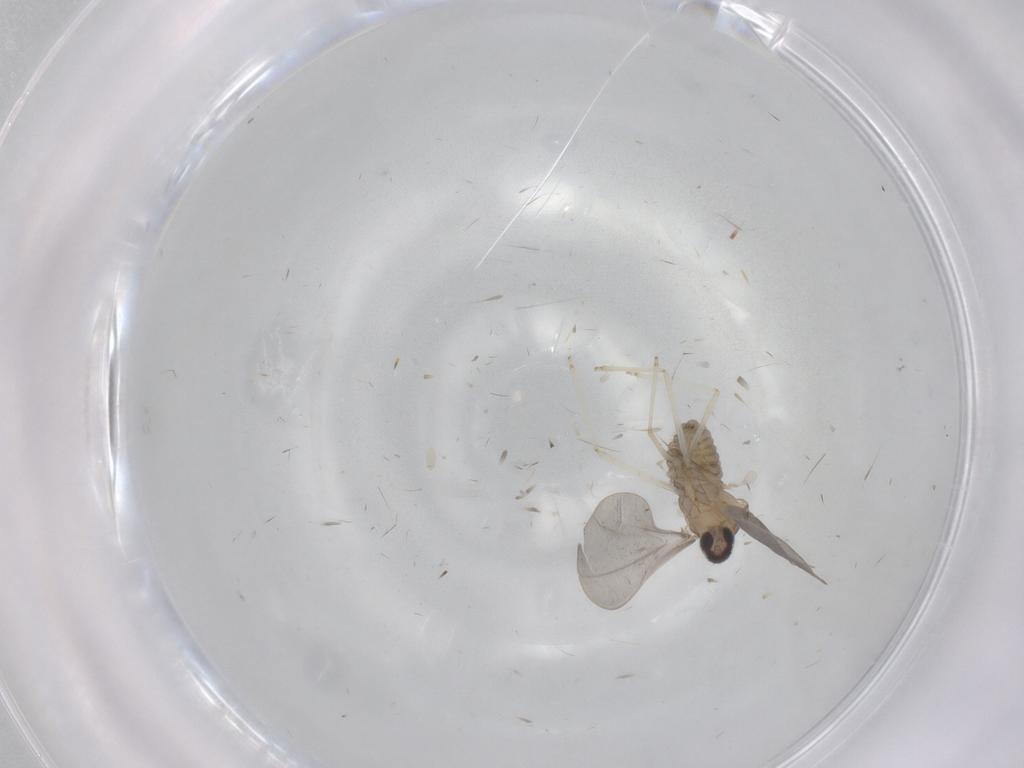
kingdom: Animalia
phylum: Arthropoda
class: Insecta
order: Diptera
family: Cecidomyiidae
